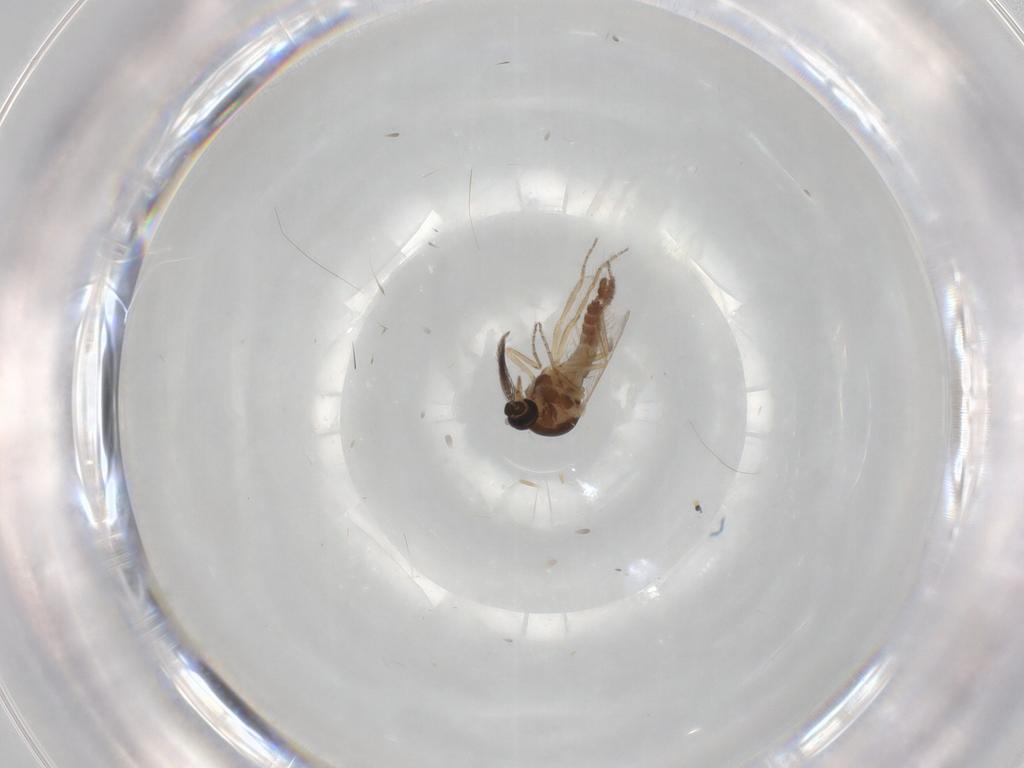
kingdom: Animalia
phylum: Arthropoda
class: Insecta
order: Diptera
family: Ceratopogonidae
